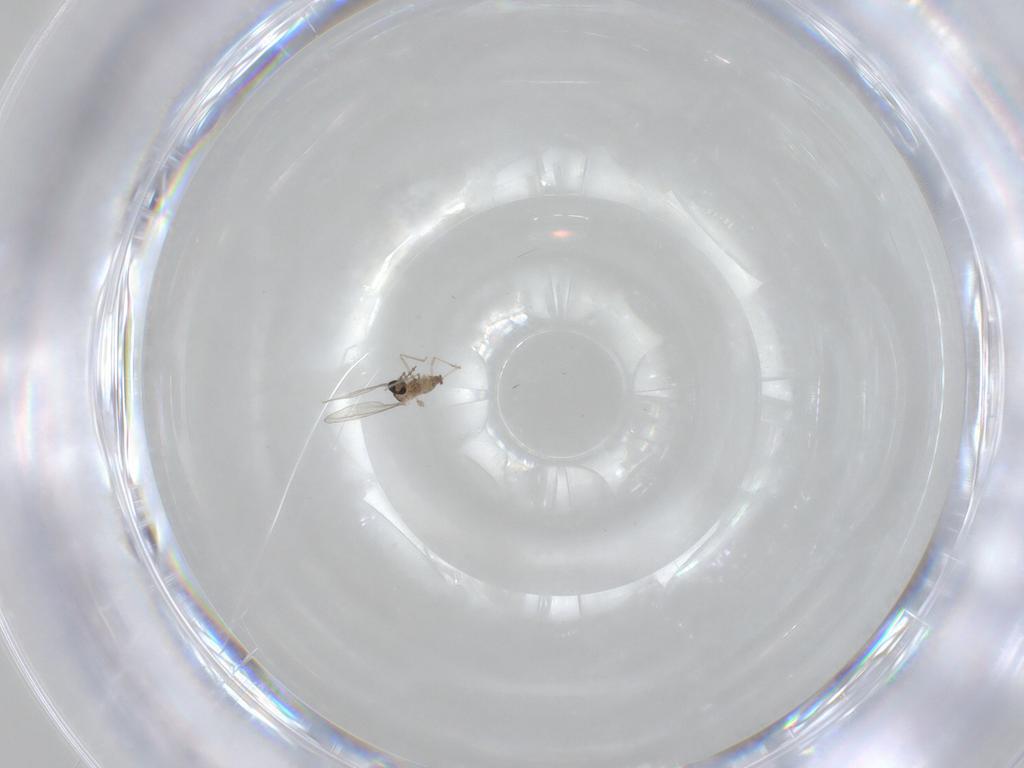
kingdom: Animalia
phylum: Arthropoda
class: Insecta
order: Diptera
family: Cecidomyiidae
